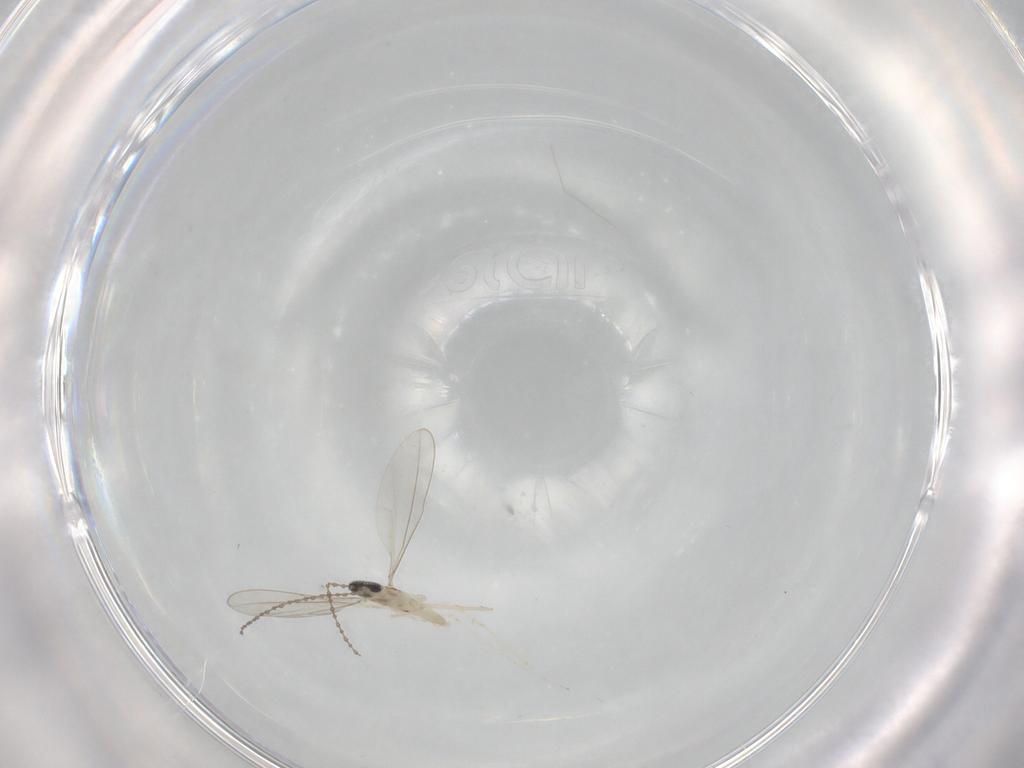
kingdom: Animalia
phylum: Arthropoda
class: Insecta
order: Diptera
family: Cecidomyiidae
